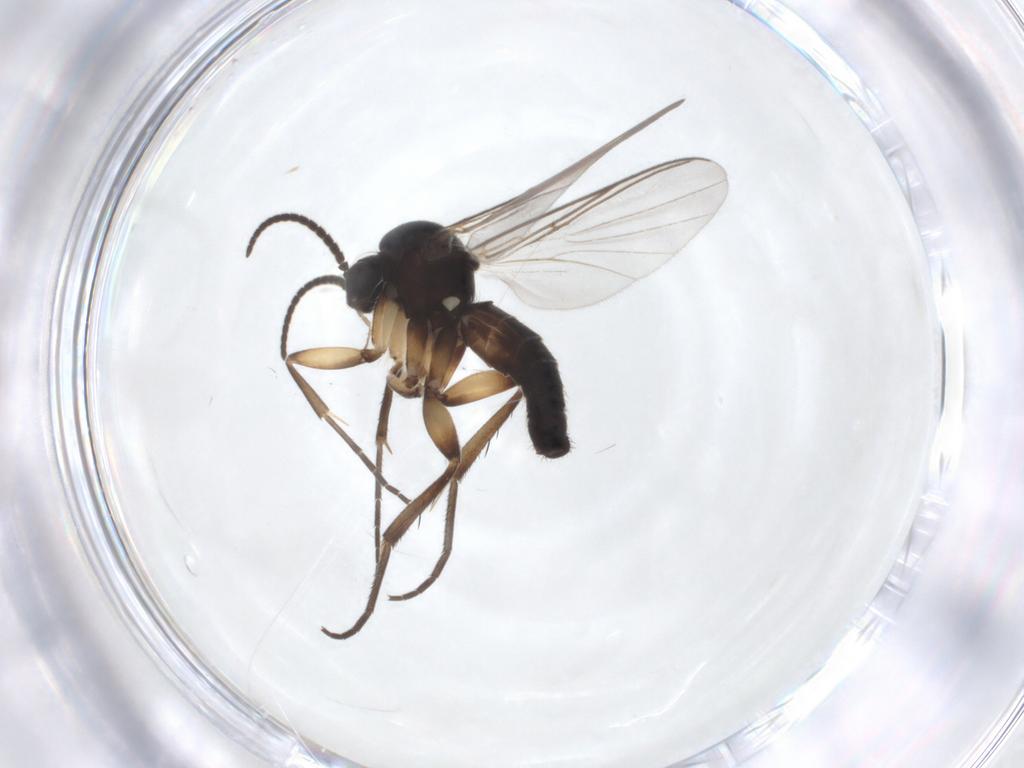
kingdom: Animalia
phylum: Arthropoda
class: Insecta
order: Diptera
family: Mycetophilidae
